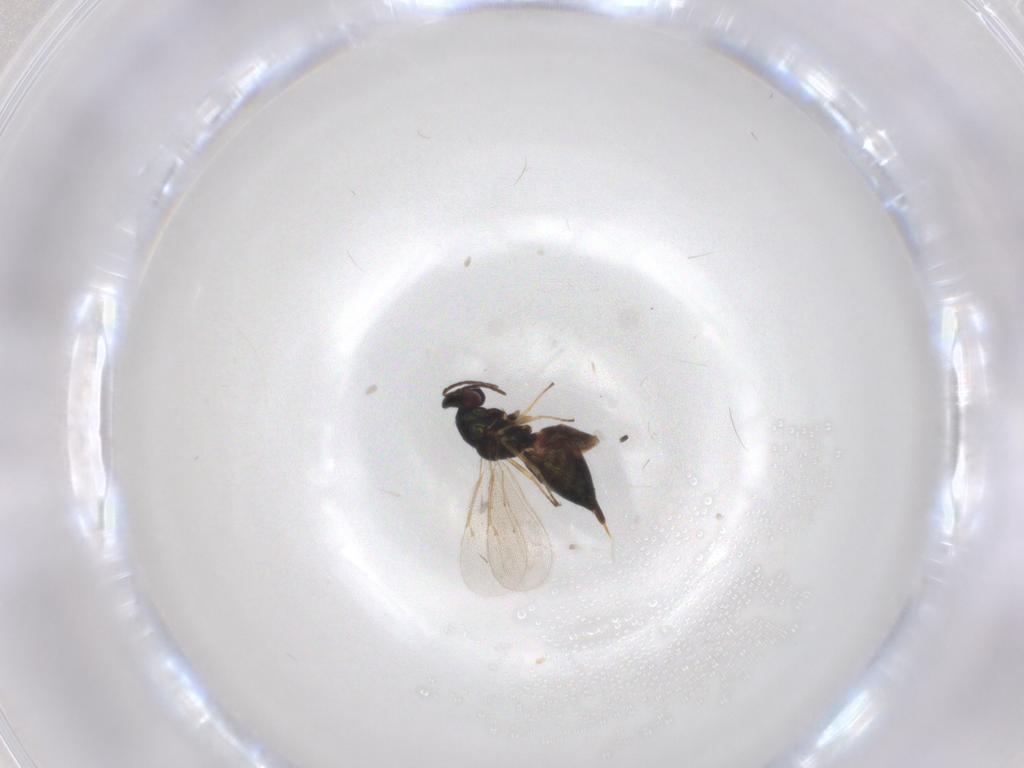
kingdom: Animalia
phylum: Arthropoda
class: Insecta
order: Hymenoptera
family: Eulophidae
